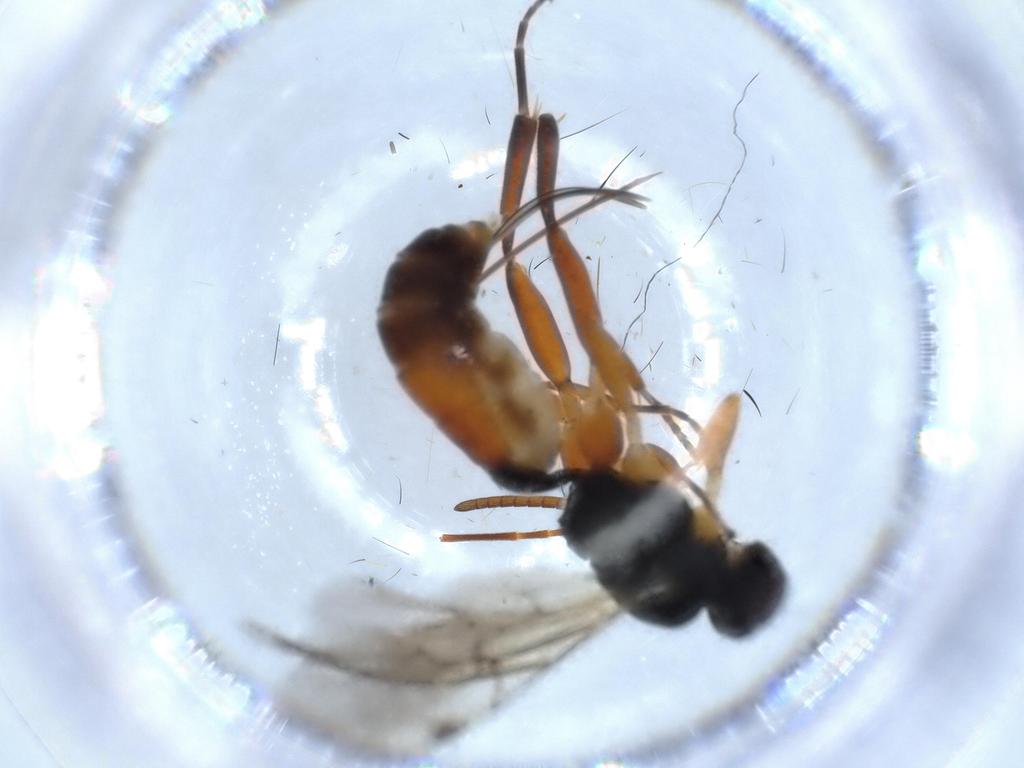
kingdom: Animalia
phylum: Arthropoda
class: Insecta
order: Hymenoptera
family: Ichneumonidae
